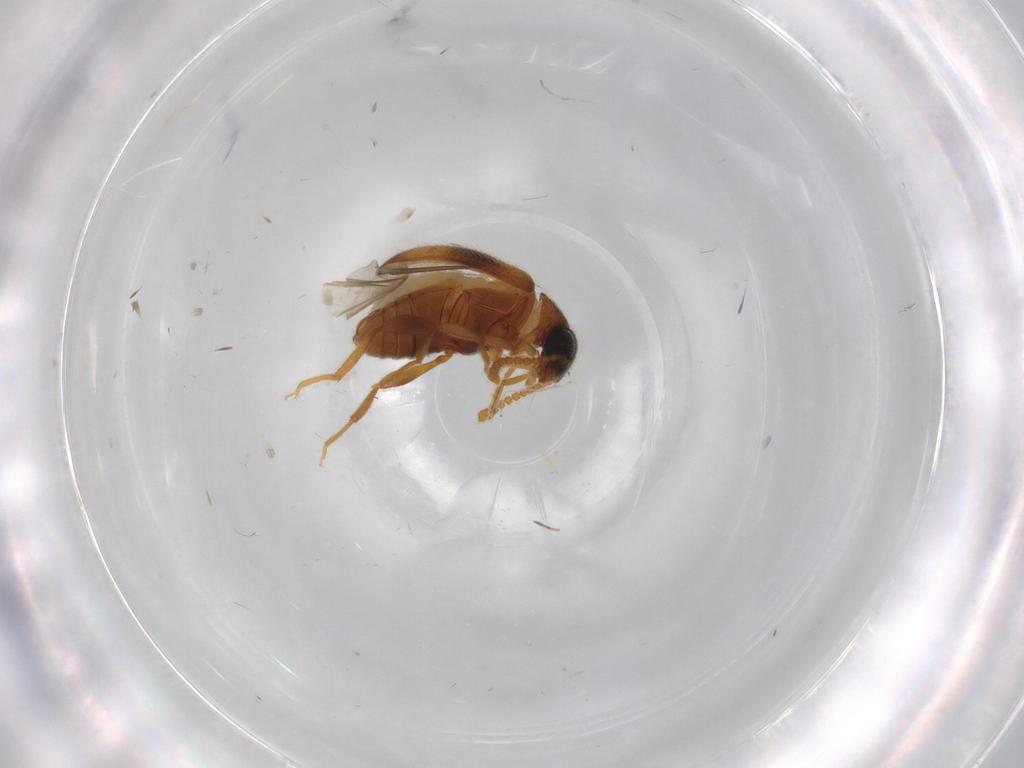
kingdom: Animalia
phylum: Arthropoda
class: Insecta
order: Coleoptera
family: Aderidae
